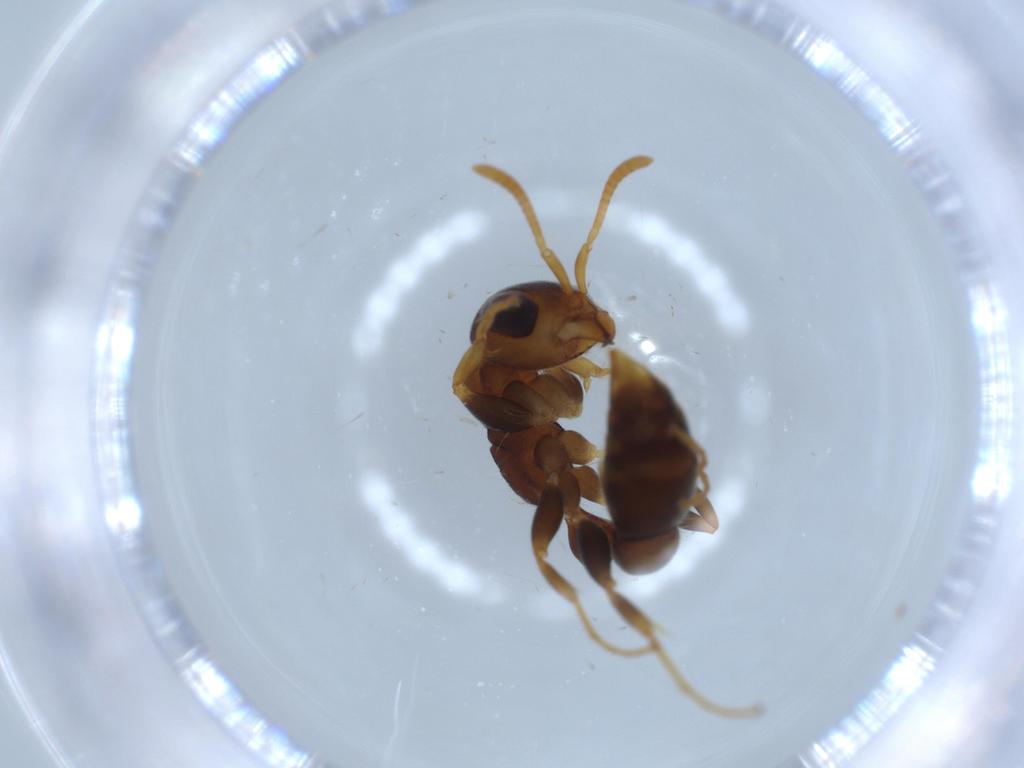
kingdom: Animalia
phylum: Arthropoda
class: Insecta
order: Hymenoptera
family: Formicidae
